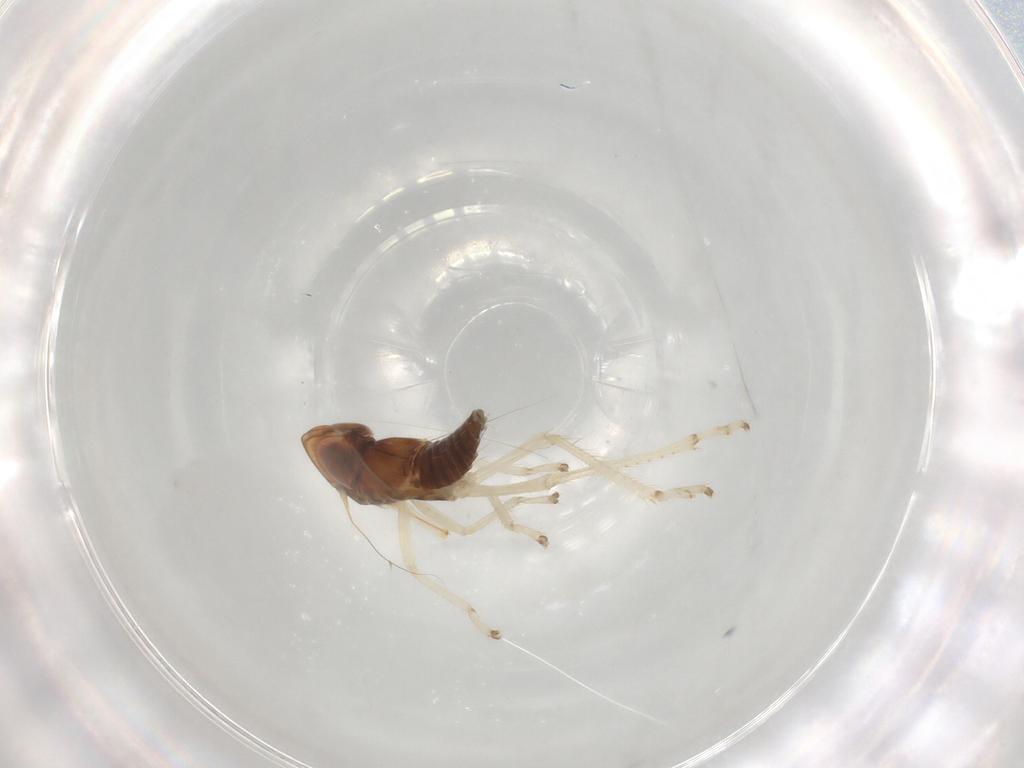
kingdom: Animalia
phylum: Arthropoda
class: Insecta
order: Hemiptera
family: Cicadellidae
